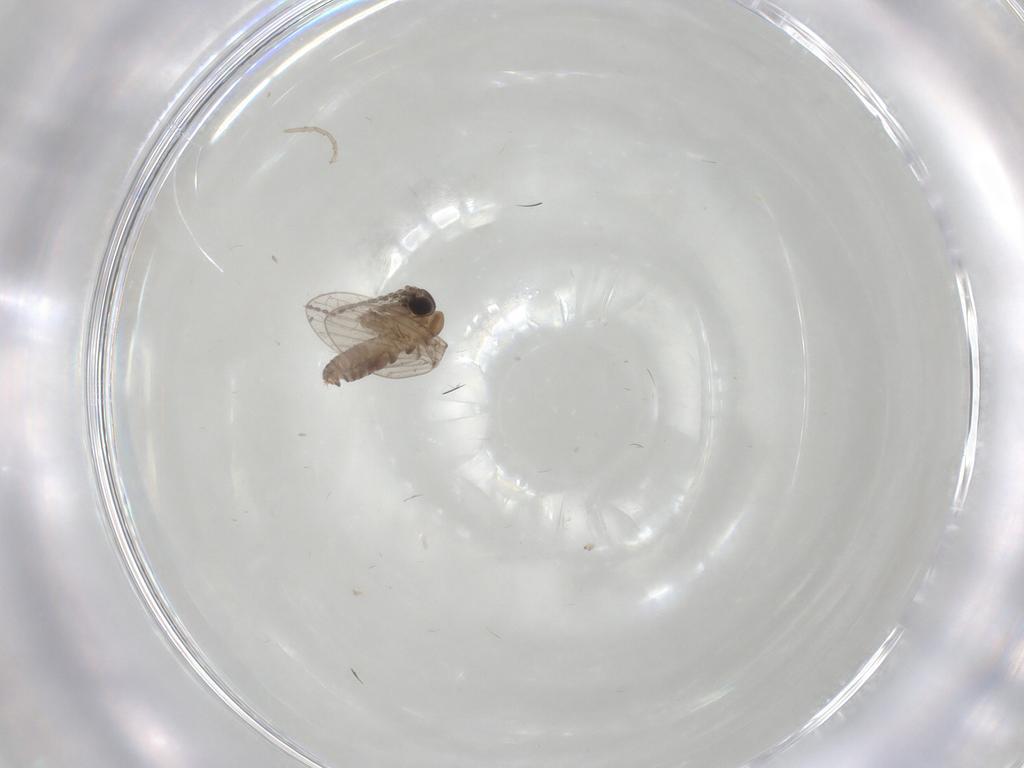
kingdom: Animalia
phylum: Arthropoda
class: Insecta
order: Diptera
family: Psychodidae
